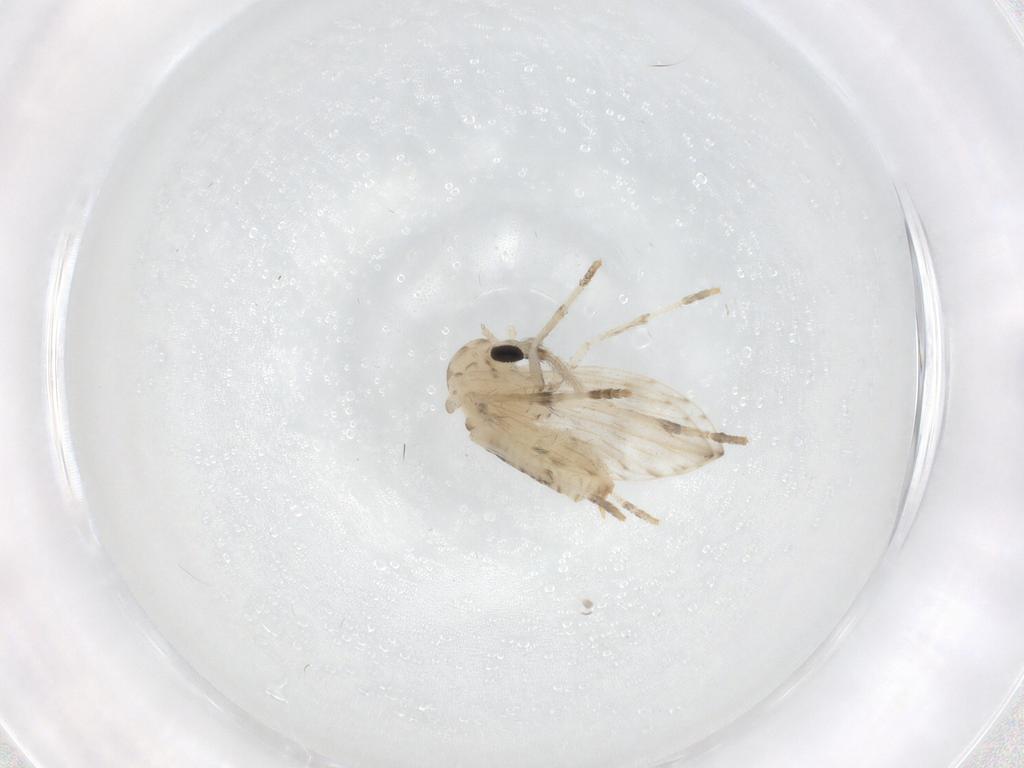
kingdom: Animalia
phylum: Arthropoda
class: Insecta
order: Diptera
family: Psychodidae
